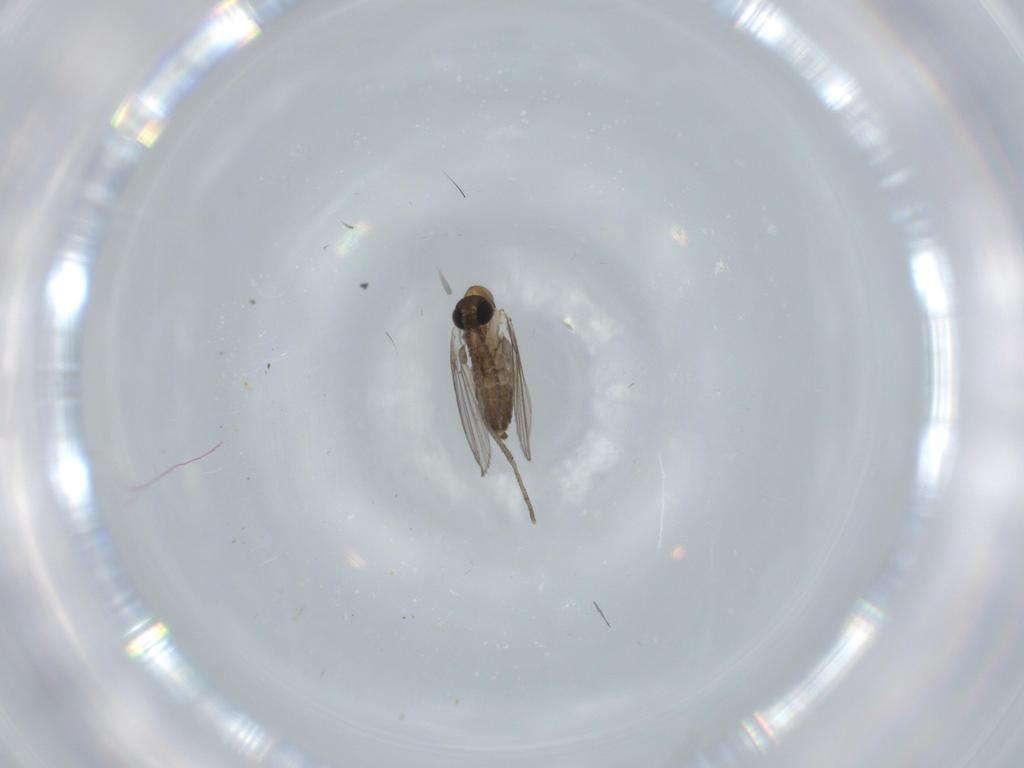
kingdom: Animalia
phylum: Arthropoda
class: Insecta
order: Diptera
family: Psychodidae
